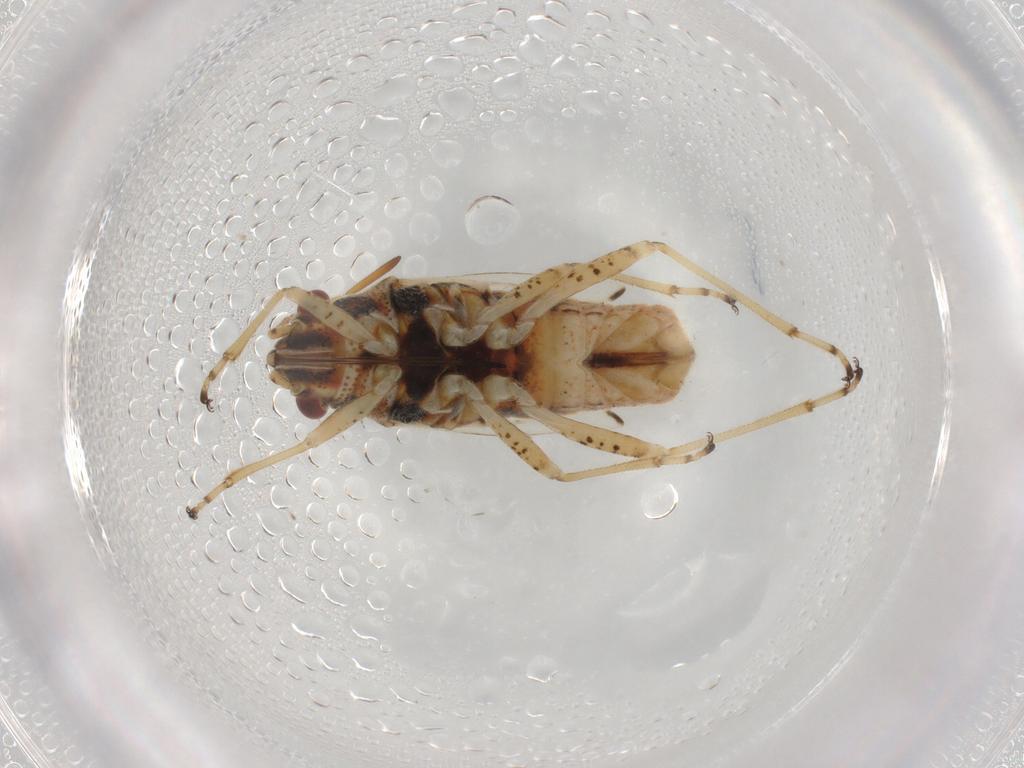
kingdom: Animalia
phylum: Arthropoda
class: Insecta
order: Hemiptera
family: Lygaeidae
